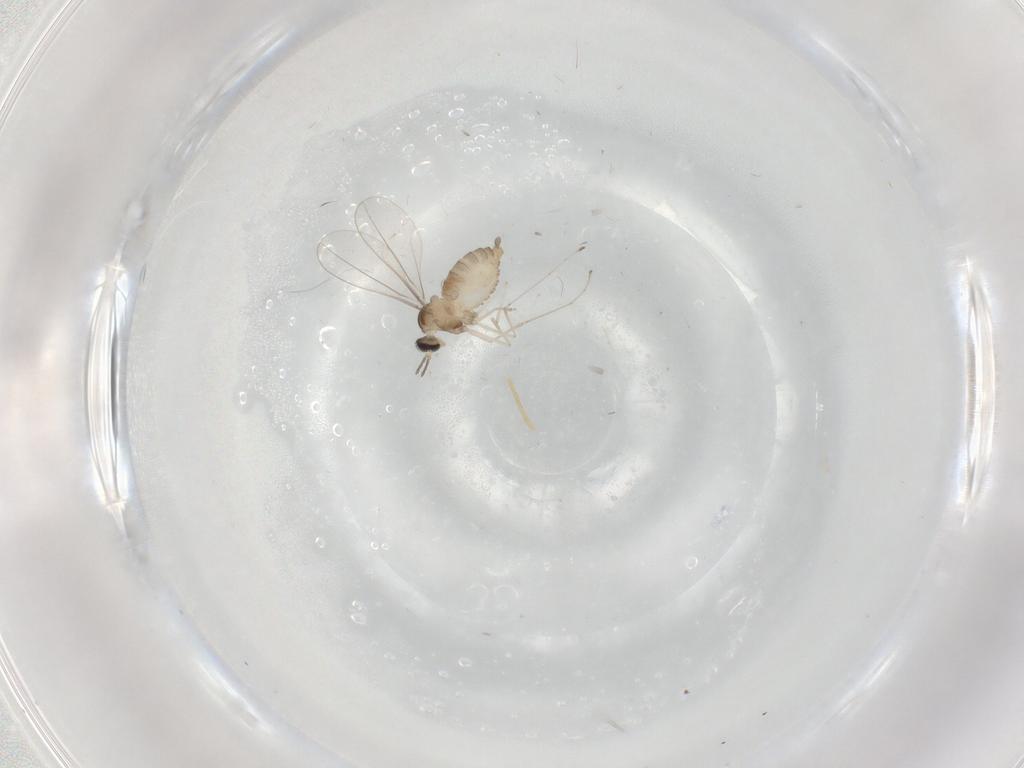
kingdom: Animalia
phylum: Arthropoda
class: Insecta
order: Diptera
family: Cecidomyiidae
